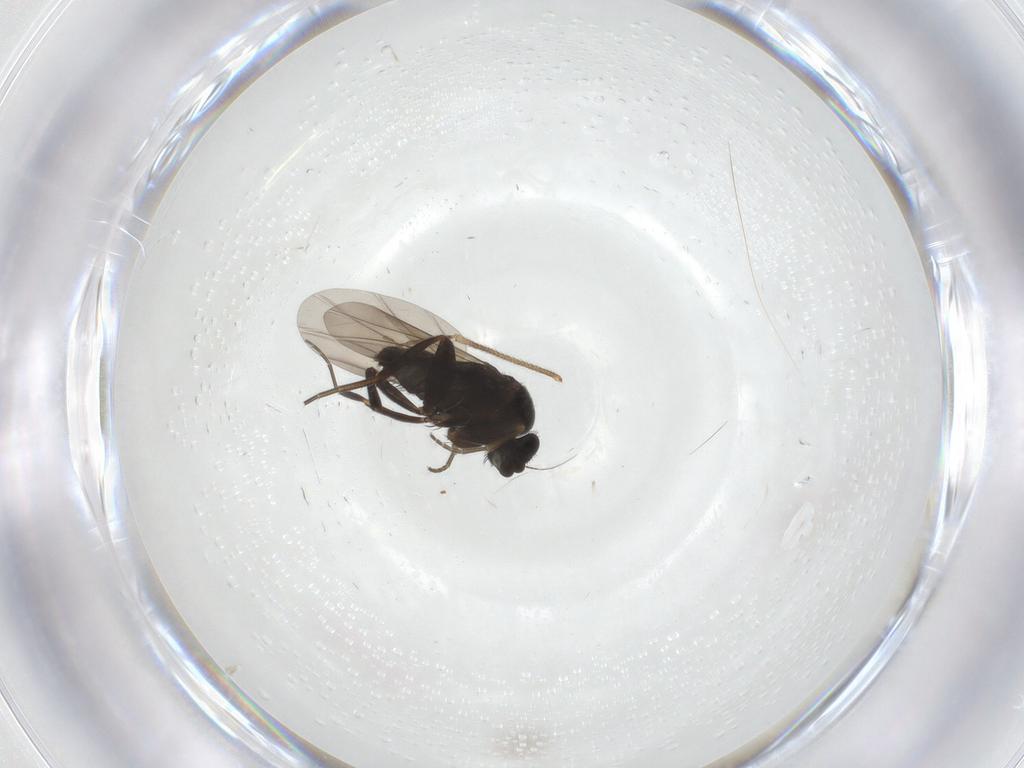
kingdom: Animalia
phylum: Arthropoda
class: Insecta
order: Diptera
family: Phoridae
